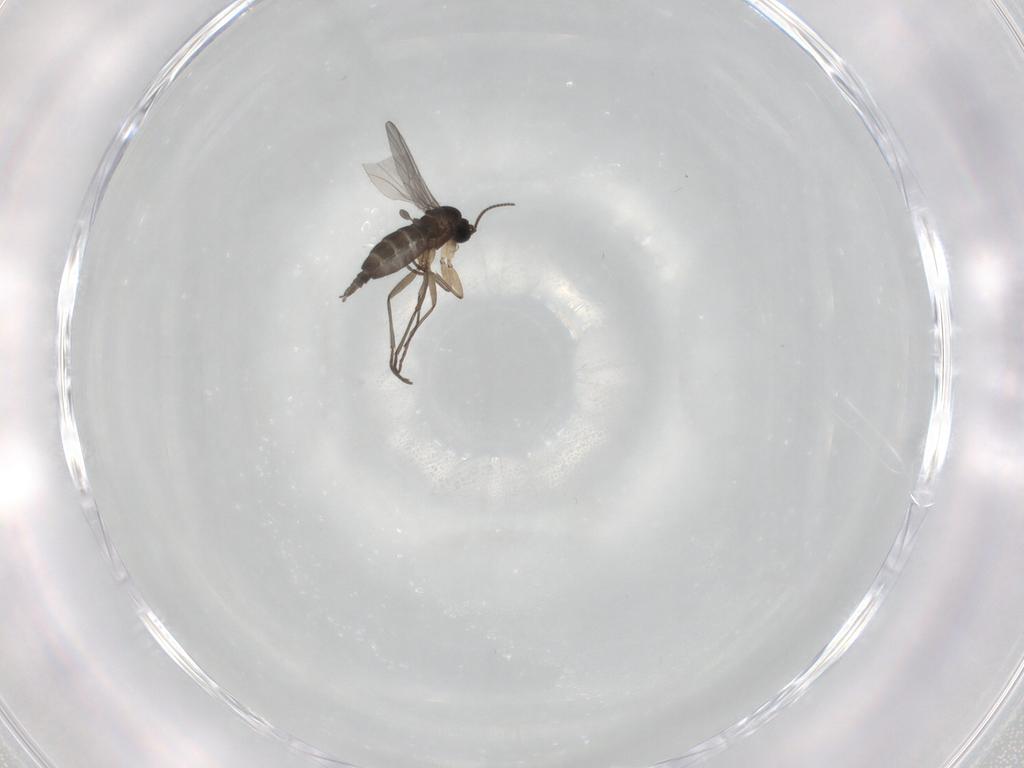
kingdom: Animalia
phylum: Arthropoda
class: Insecta
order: Diptera
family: Sciaridae
